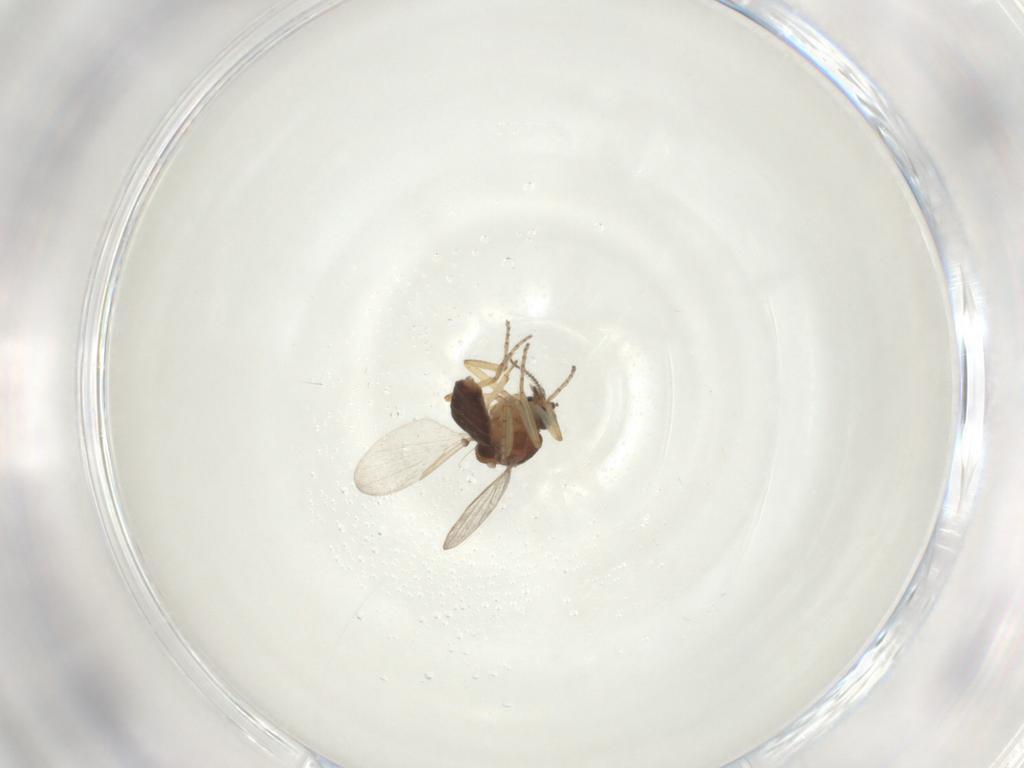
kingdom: Animalia
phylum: Arthropoda
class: Insecta
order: Diptera
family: Ceratopogonidae
